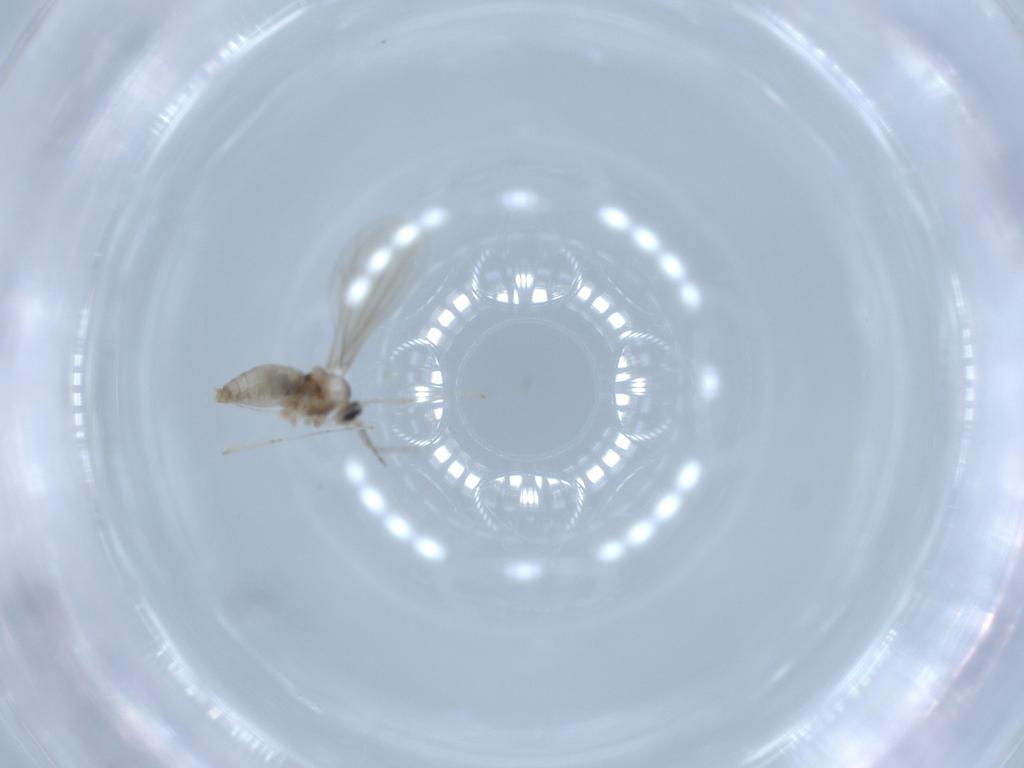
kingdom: Animalia
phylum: Arthropoda
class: Insecta
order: Diptera
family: Cecidomyiidae
